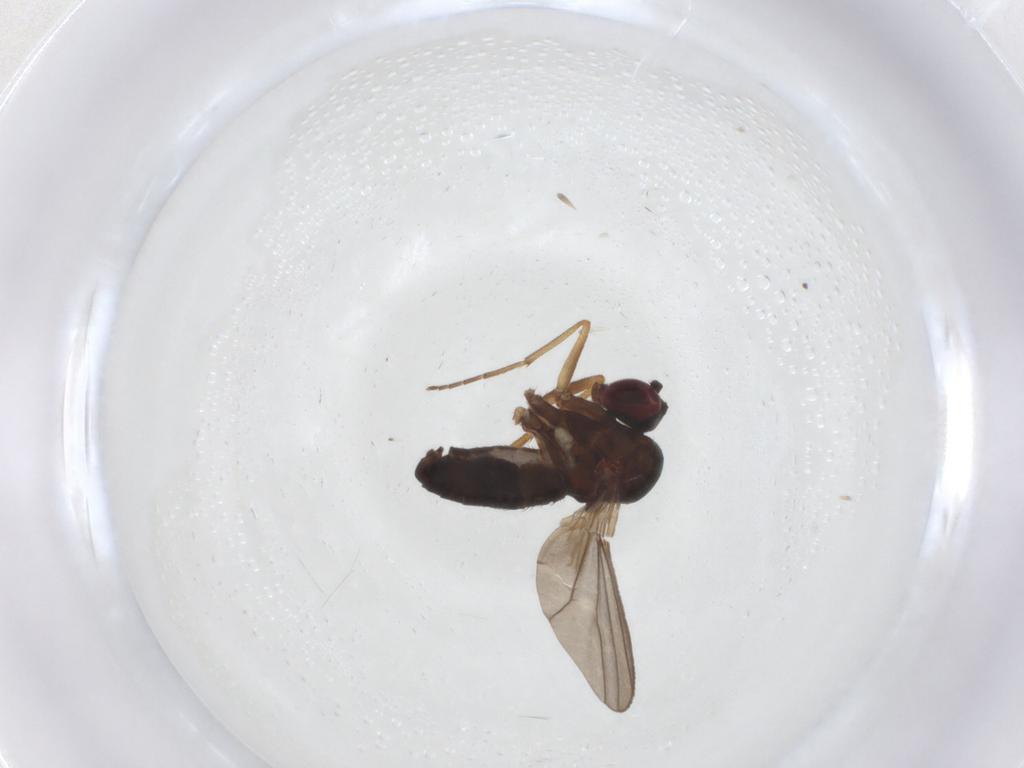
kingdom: Animalia
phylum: Arthropoda
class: Insecta
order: Diptera
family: Dolichopodidae
